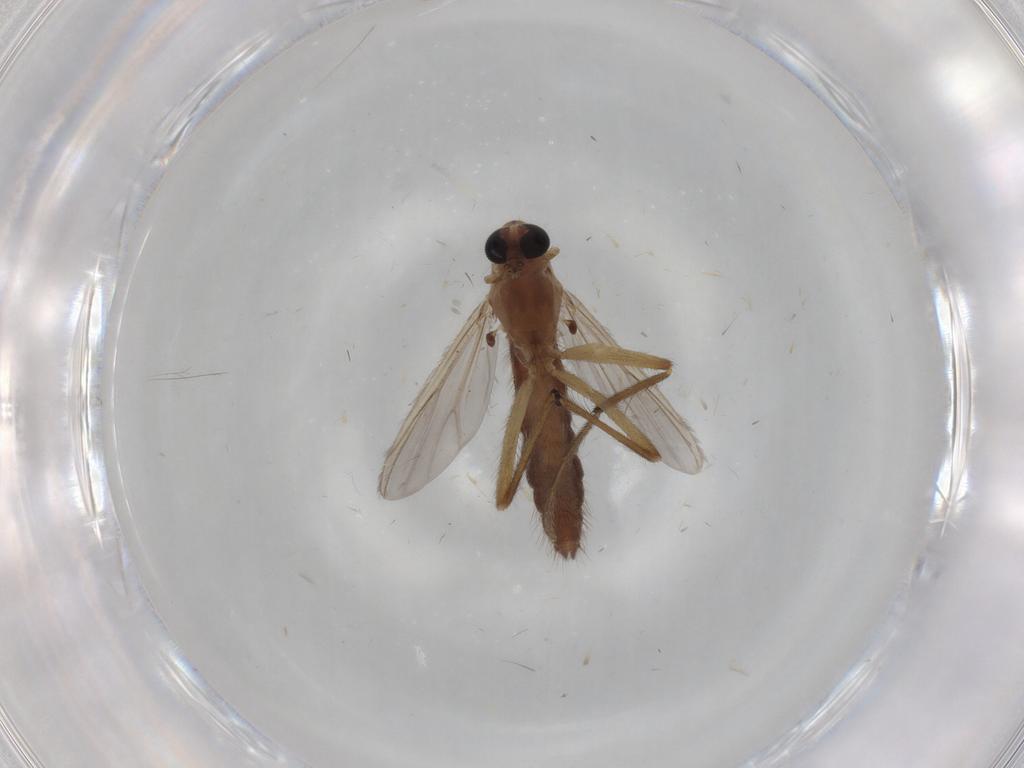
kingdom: Animalia
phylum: Arthropoda
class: Insecta
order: Diptera
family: Chironomidae
